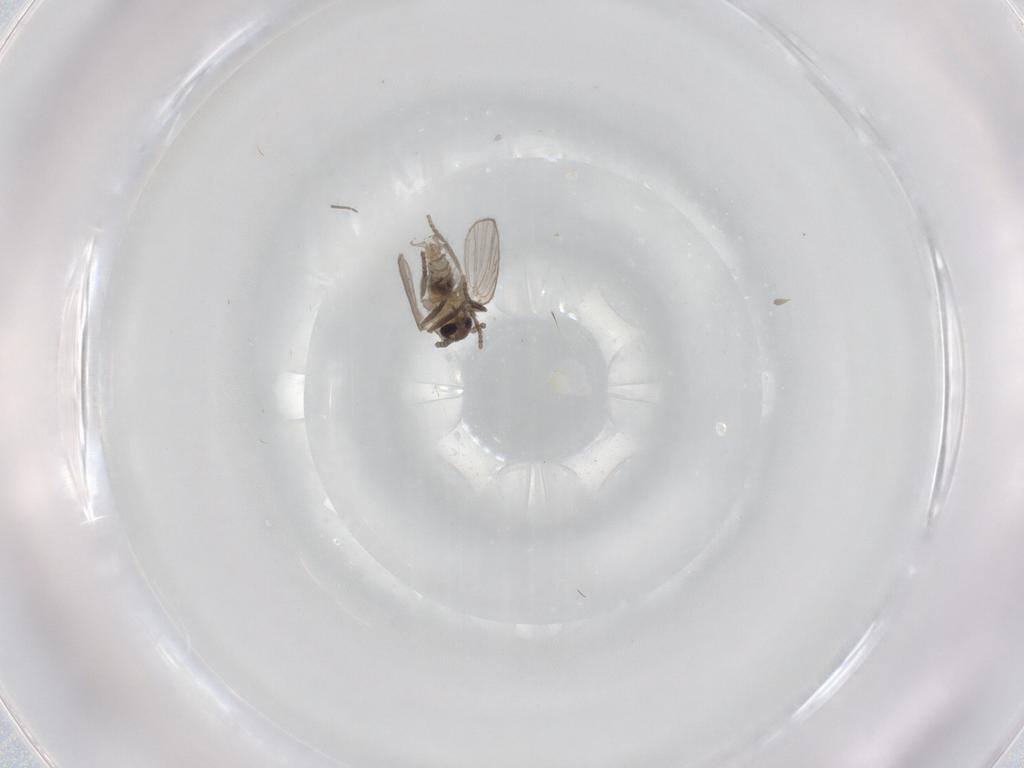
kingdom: Animalia
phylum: Arthropoda
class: Insecta
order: Diptera
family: Psychodidae
